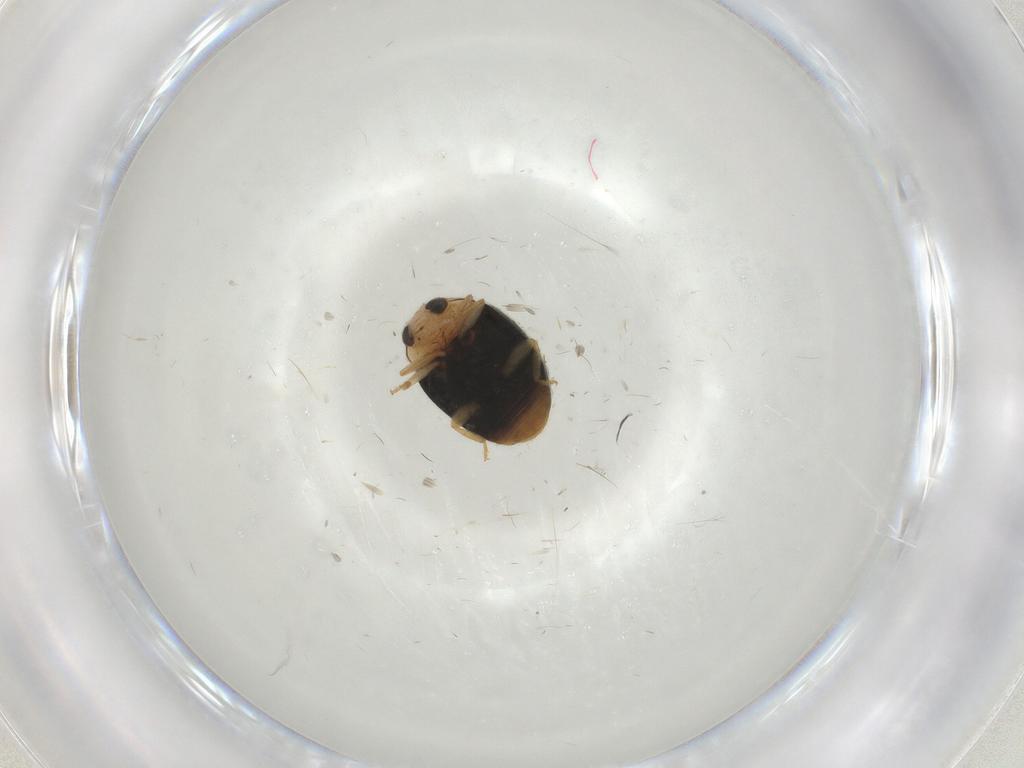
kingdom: Animalia
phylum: Arthropoda
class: Insecta
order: Coleoptera
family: Coccinellidae
